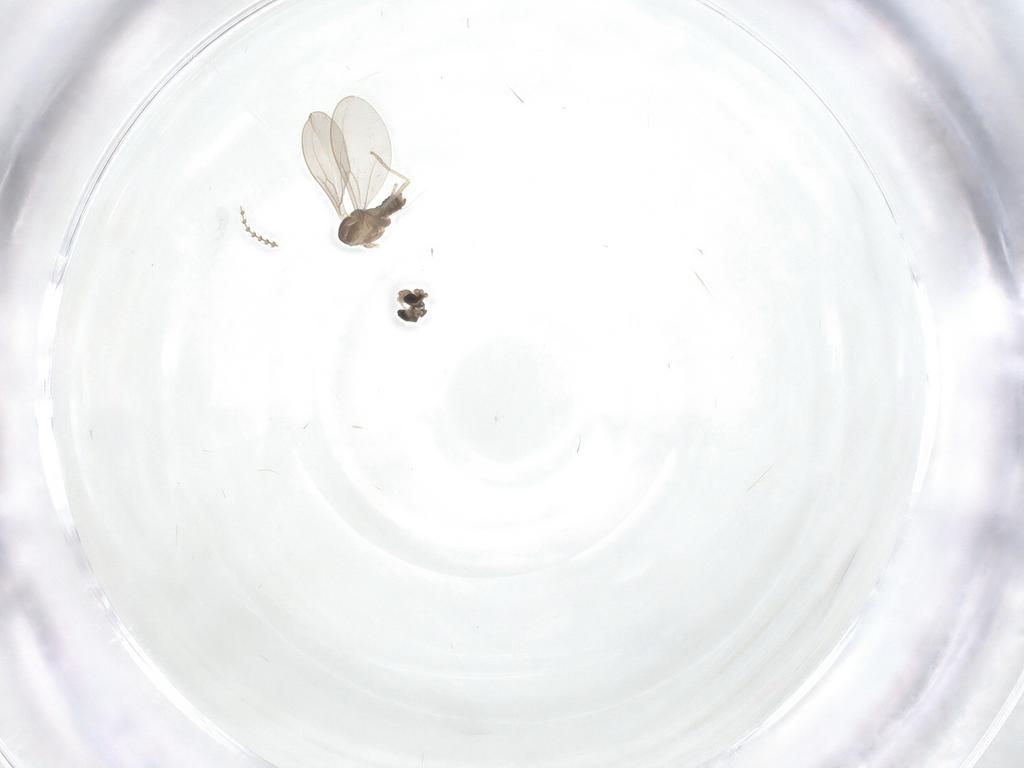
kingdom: Animalia
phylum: Arthropoda
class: Insecta
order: Diptera
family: Cecidomyiidae
